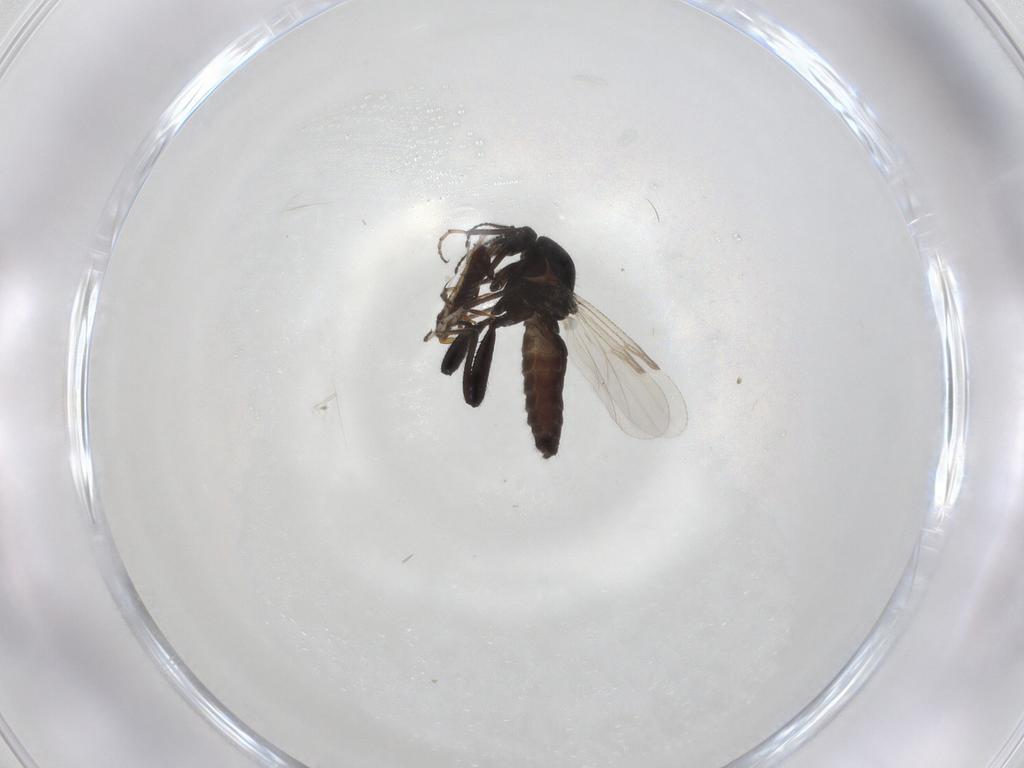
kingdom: Animalia
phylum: Arthropoda
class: Insecta
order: Diptera
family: Ceratopogonidae
